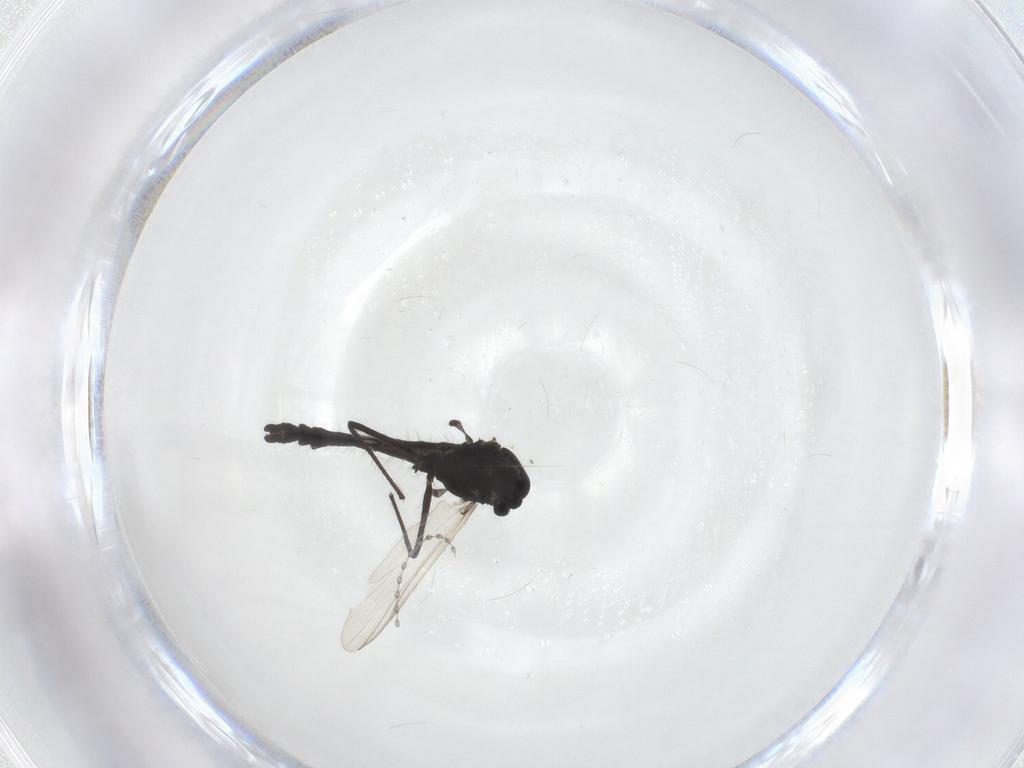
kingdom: Animalia
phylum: Arthropoda
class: Insecta
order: Diptera
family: Cecidomyiidae
